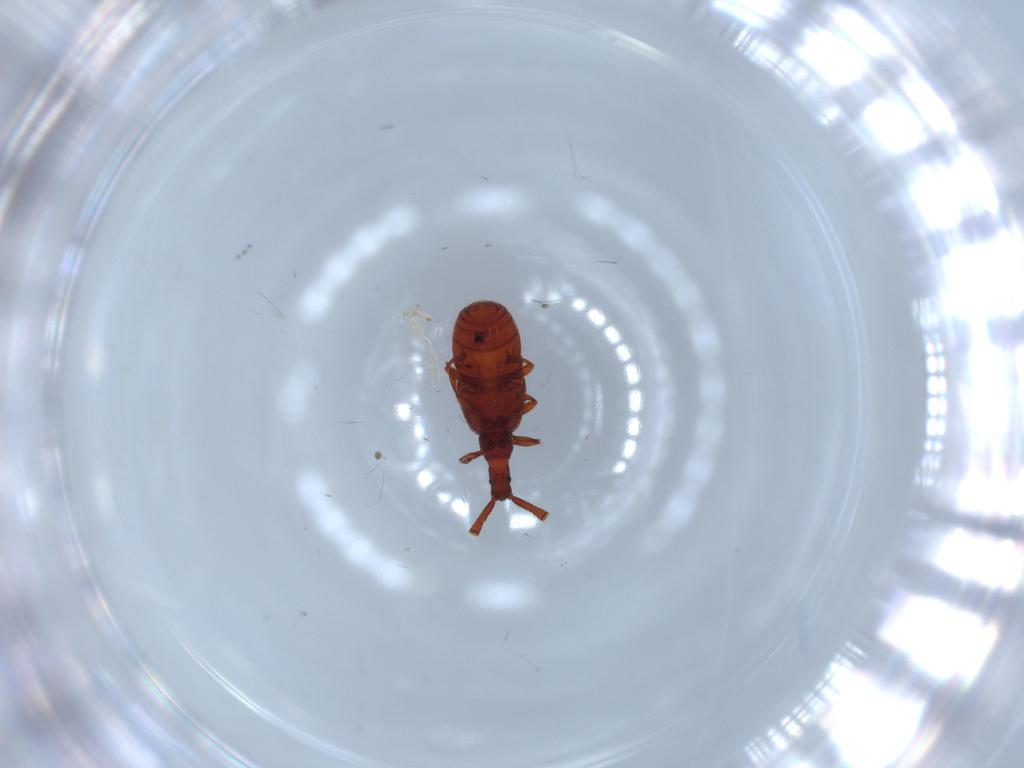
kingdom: Animalia
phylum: Arthropoda
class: Insecta
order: Coleoptera
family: Staphylinidae
